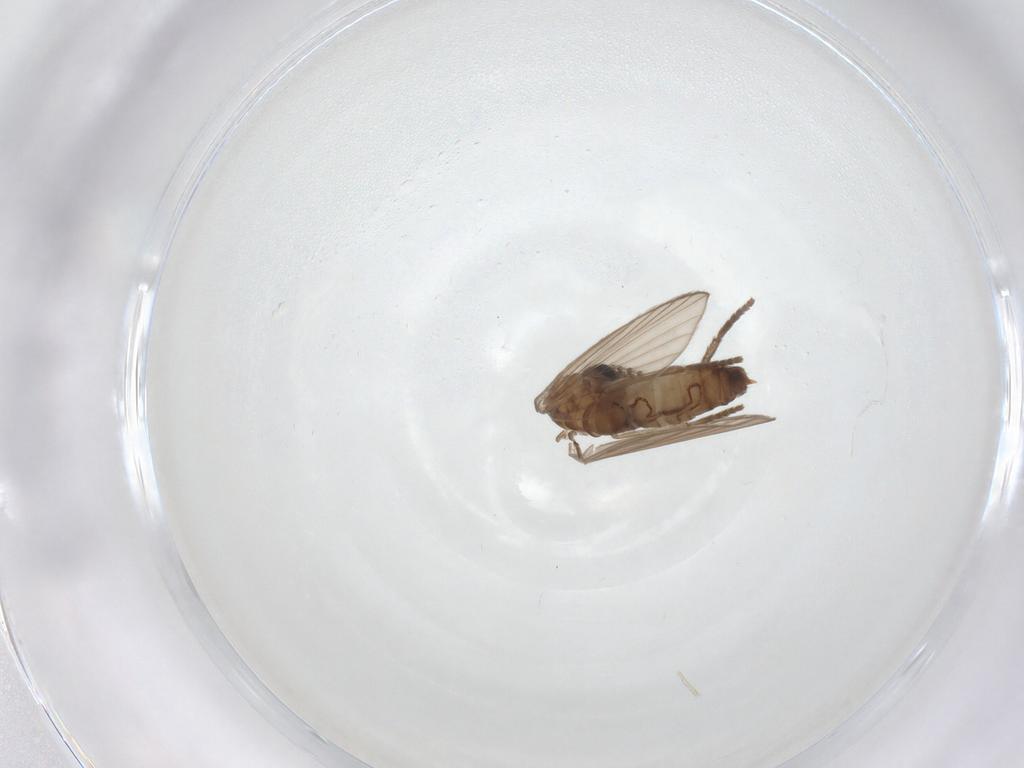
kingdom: Animalia
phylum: Arthropoda
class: Insecta
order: Diptera
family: Psychodidae
